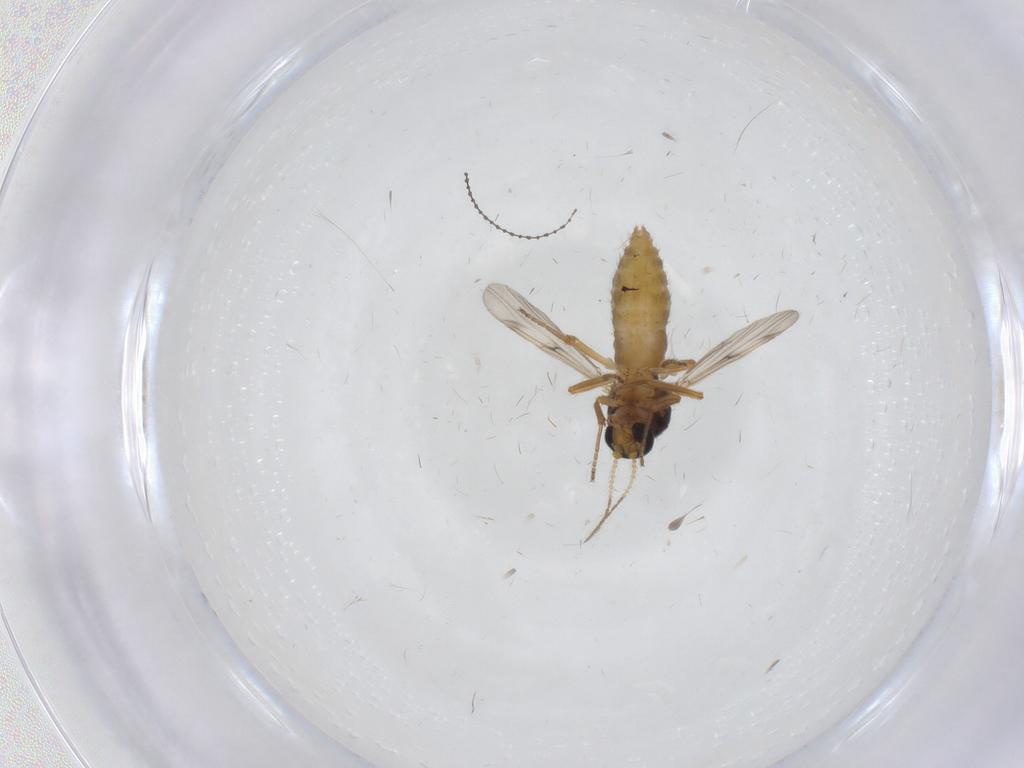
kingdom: Animalia
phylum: Arthropoda
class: Insecta
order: Diptera
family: Ceratopogonidae
